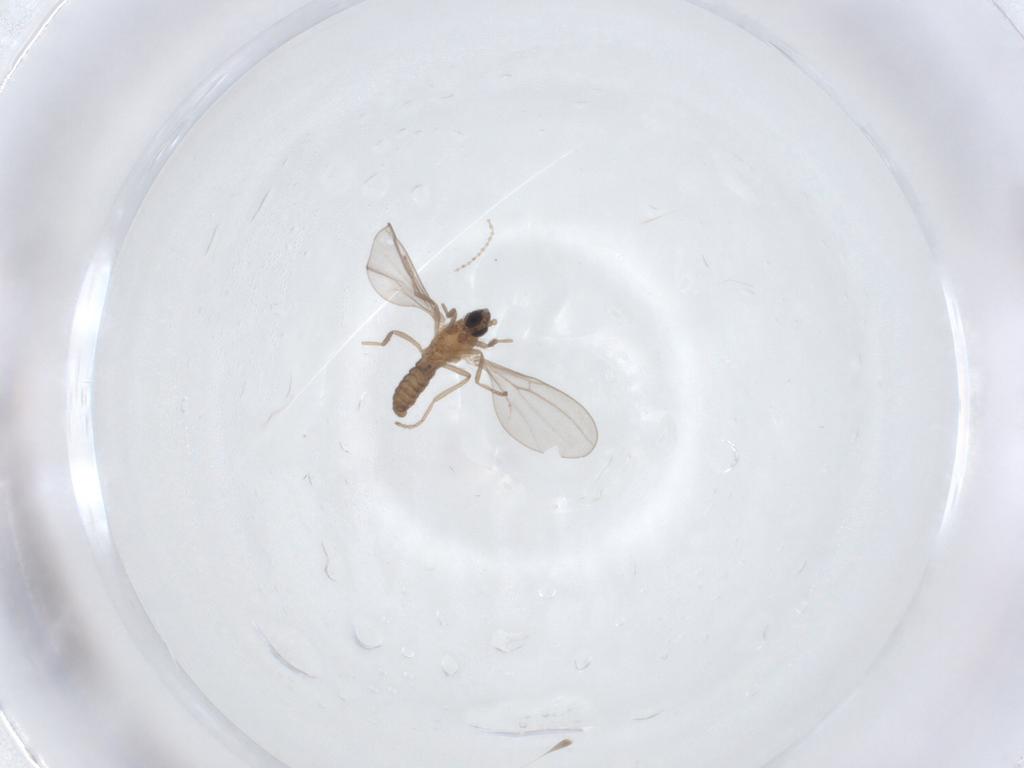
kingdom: Animalia
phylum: Arthropoda
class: Insecta
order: Diptera
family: Cecidomyiidae
